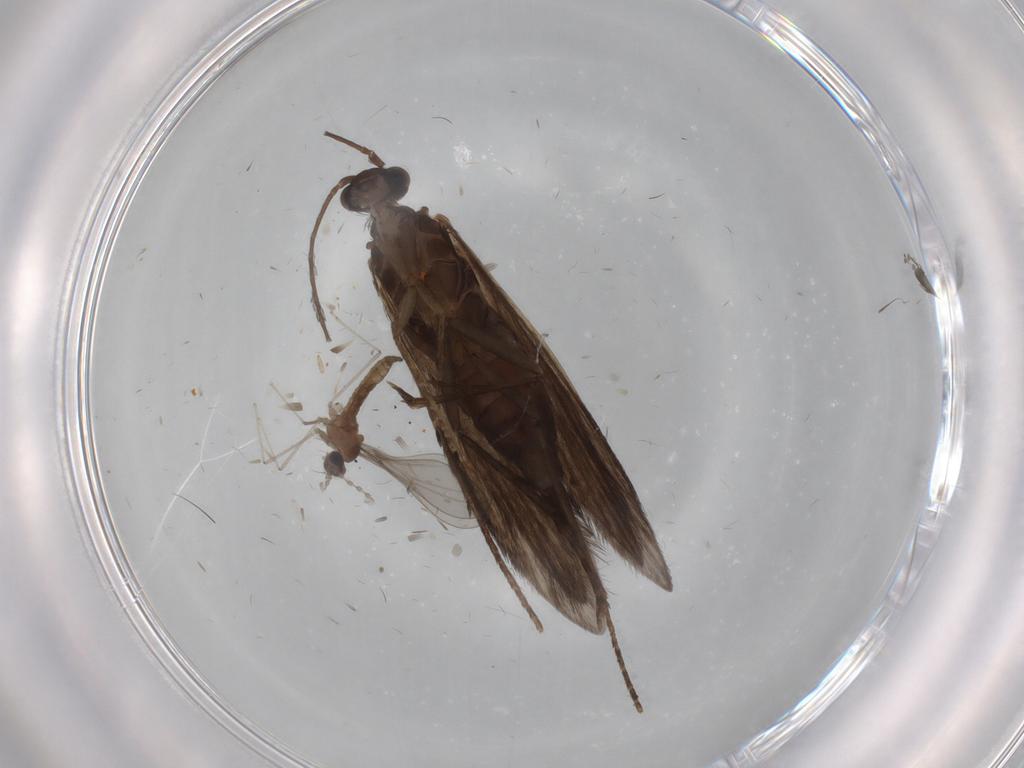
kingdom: Animalia
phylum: Arthropoda
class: Insecta
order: Diptera
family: Cecidomyiidae
